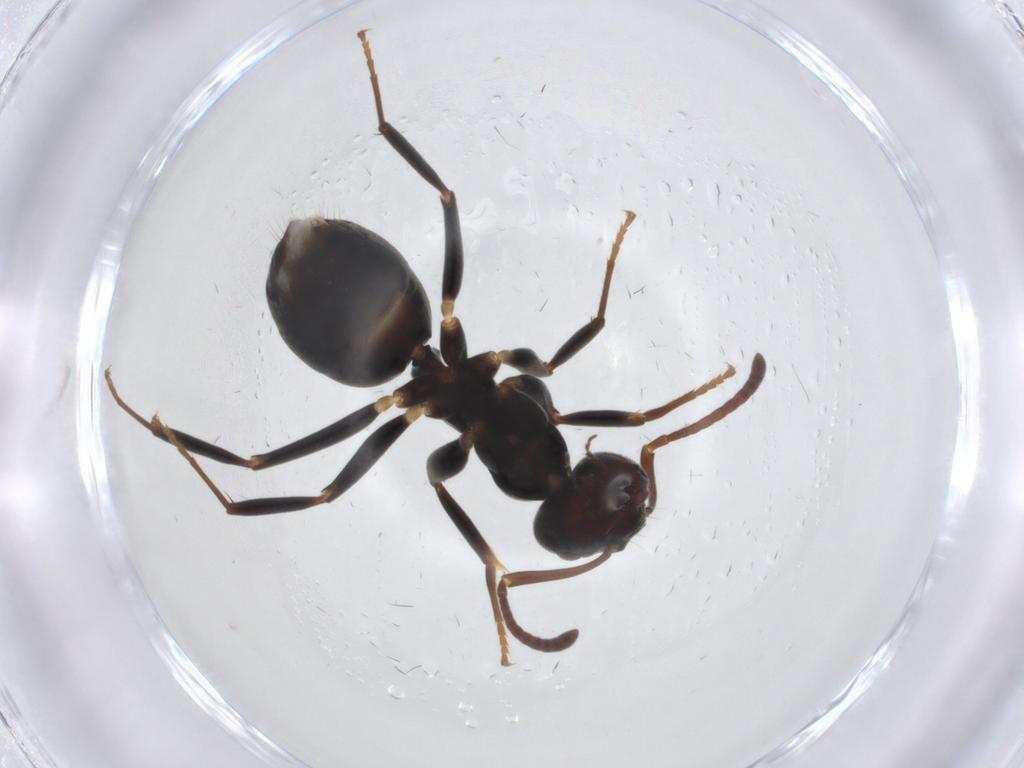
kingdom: Animalia
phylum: Arthropoda
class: Insecta
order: Hymenoptera
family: Formicidae
